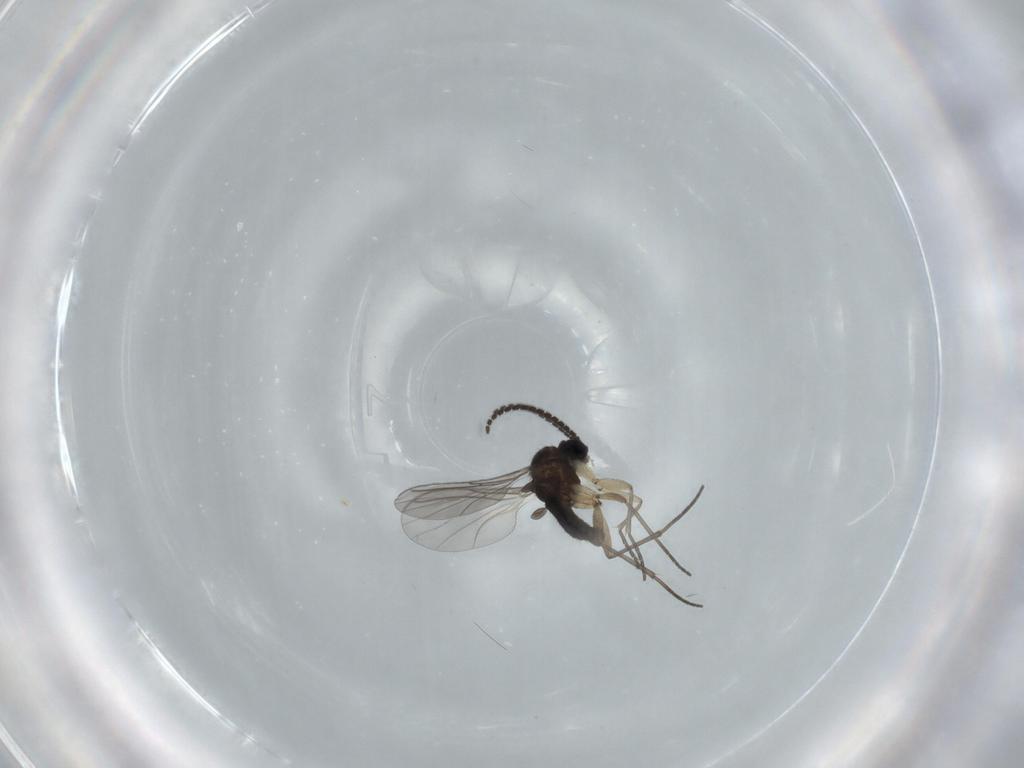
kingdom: Animalia
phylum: Arthropoda
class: Insecta
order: Diptera
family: Sciaridae
